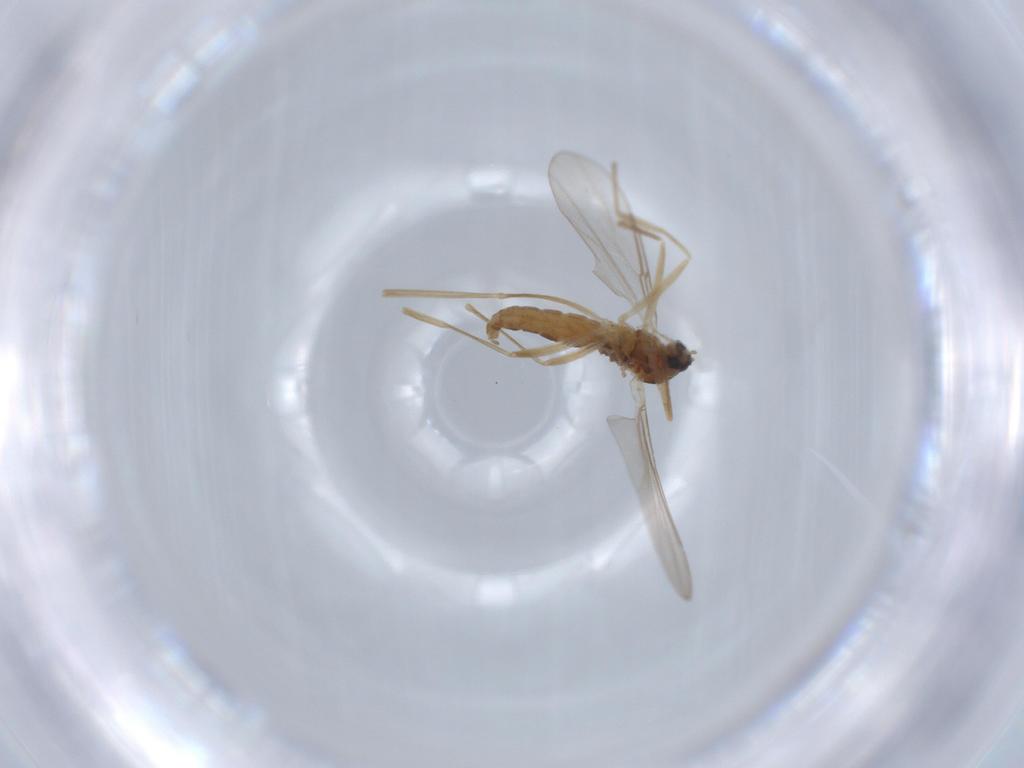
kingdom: Animalia
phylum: Arthropoda
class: Insecta
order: Diptera
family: Cecidomyiidae
